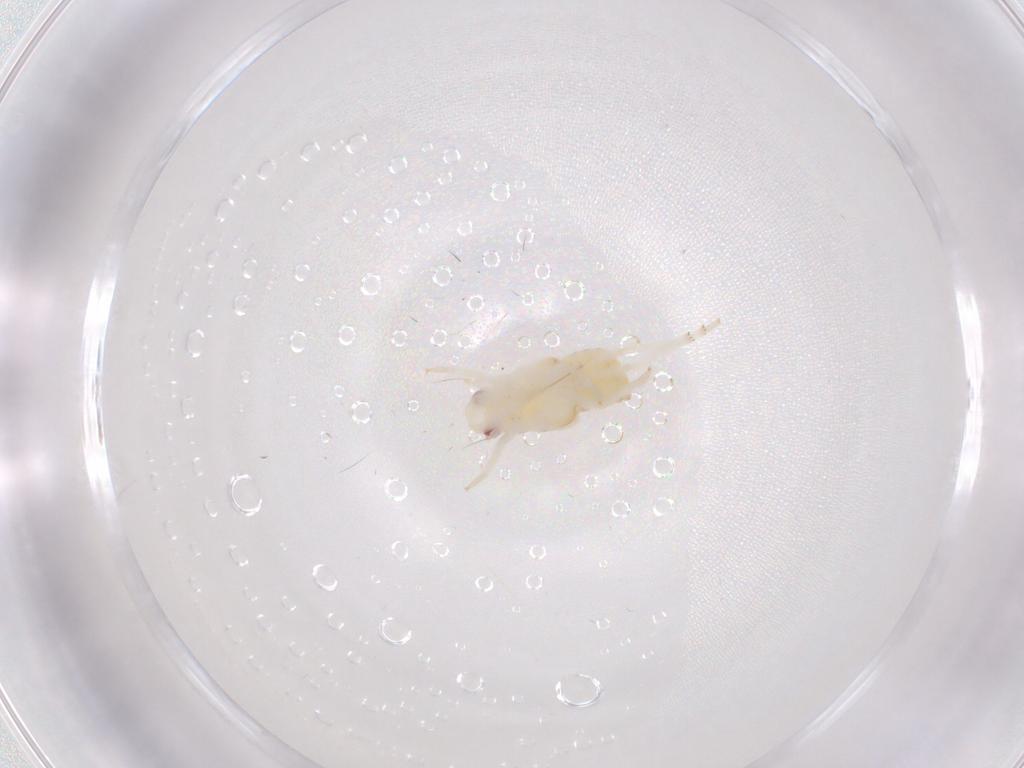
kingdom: Animalia
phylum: Arthropoda
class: Insecta
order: Hemiptera
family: Flatidae
